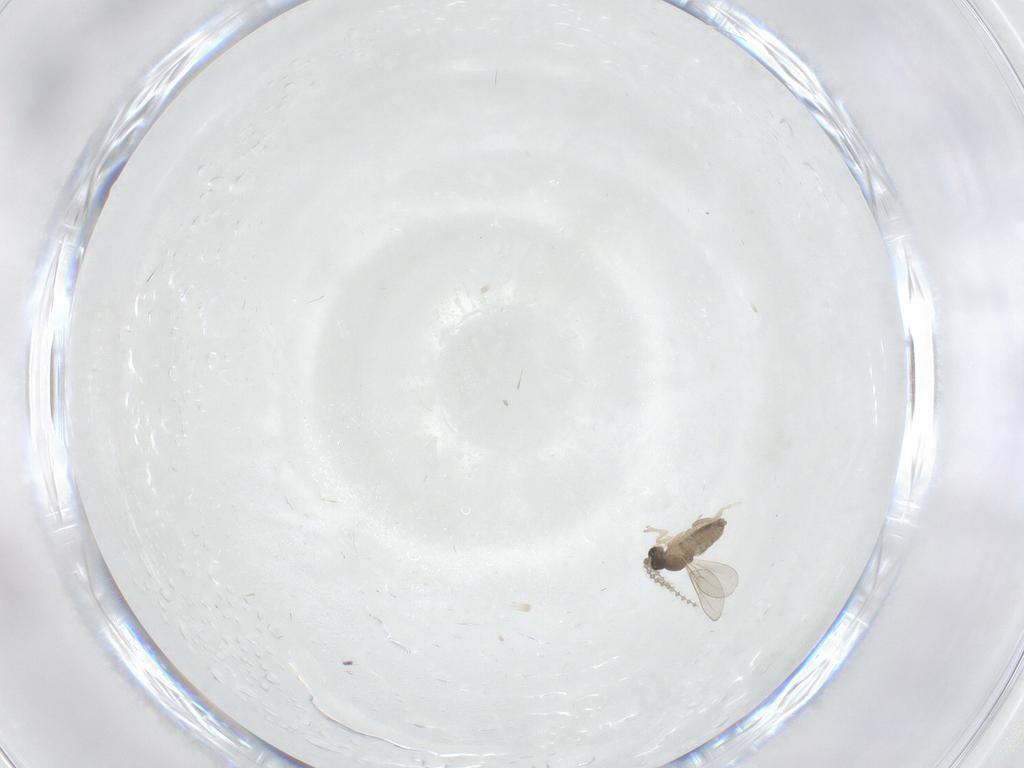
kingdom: Animalia
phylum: Arthropoda
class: Insecta
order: Diptera
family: Cecidomyiidae
